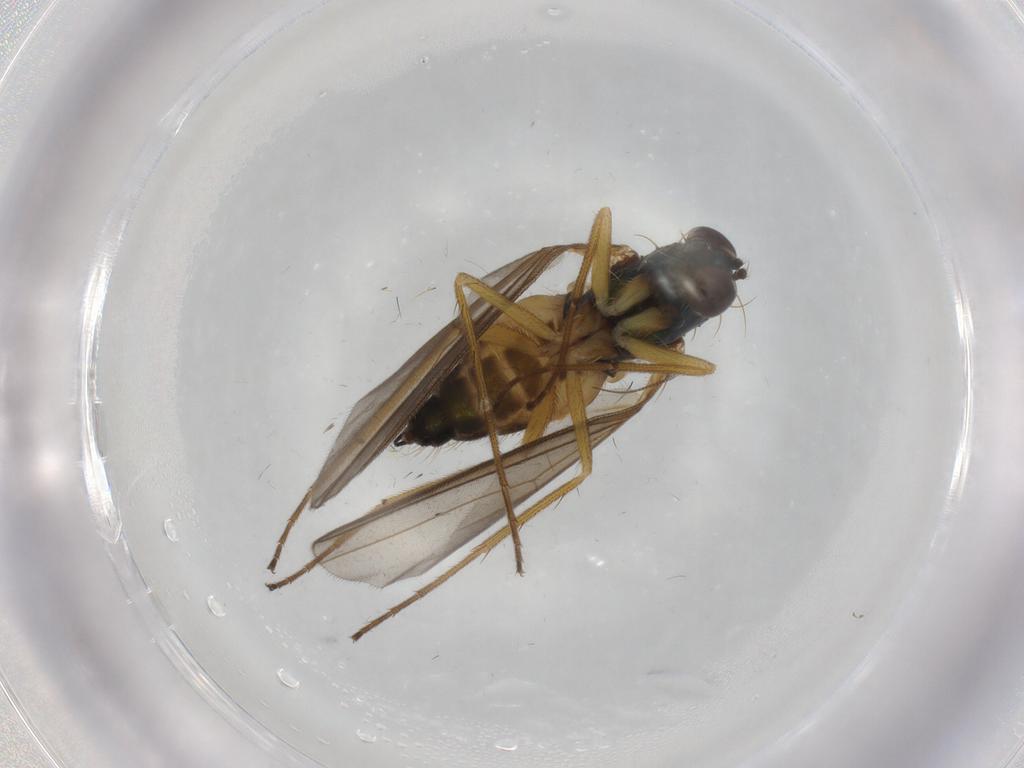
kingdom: Animalia
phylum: Arthropoda
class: Insecta
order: Diptera
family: Dolichopodidae
